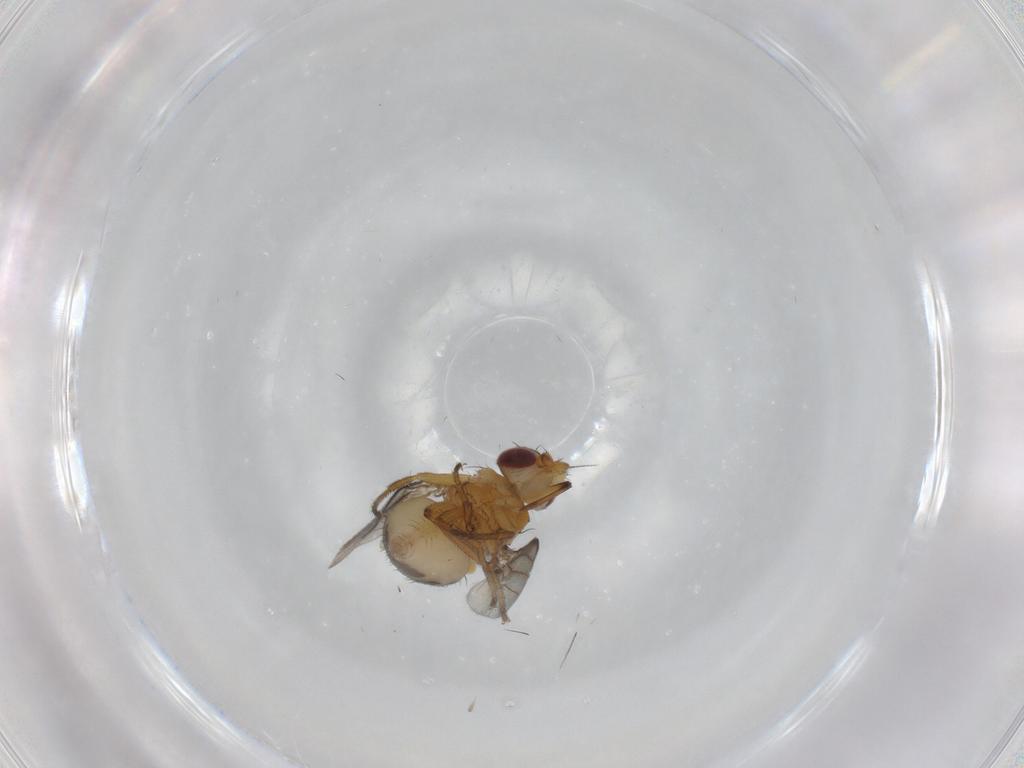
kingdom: Animalia
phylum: Arthropoda
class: Insecta
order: Diptera
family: Milichiidae
